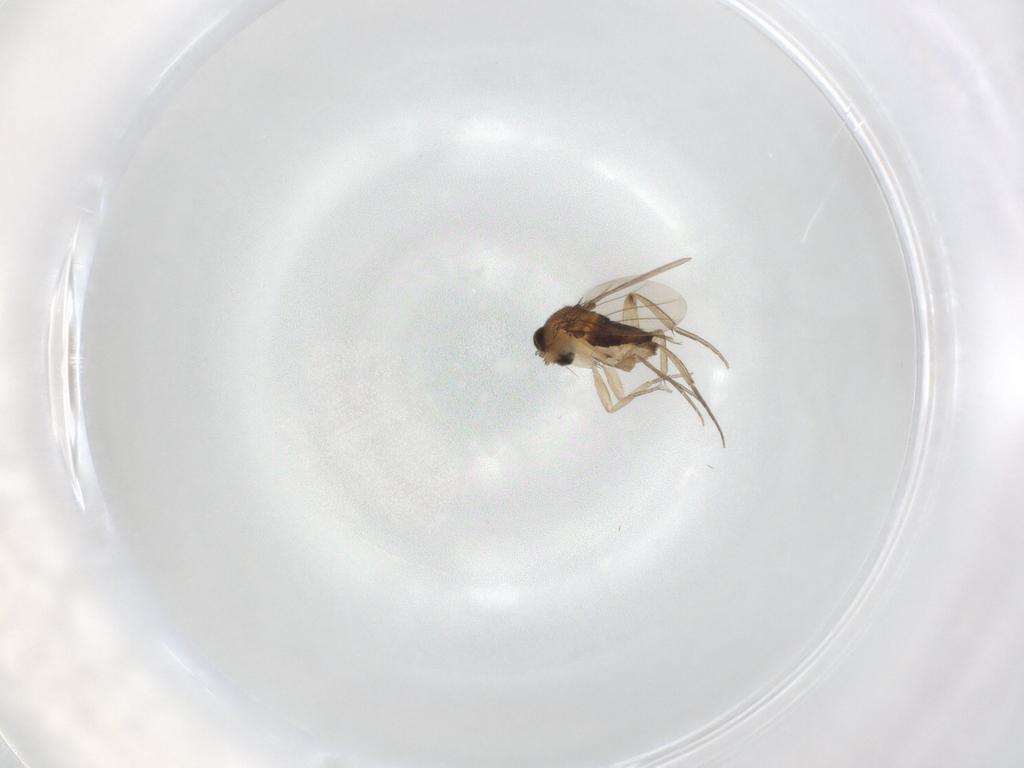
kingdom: Animalia
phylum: Arthropoda
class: Insecta
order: Diptera
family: Phoridae
